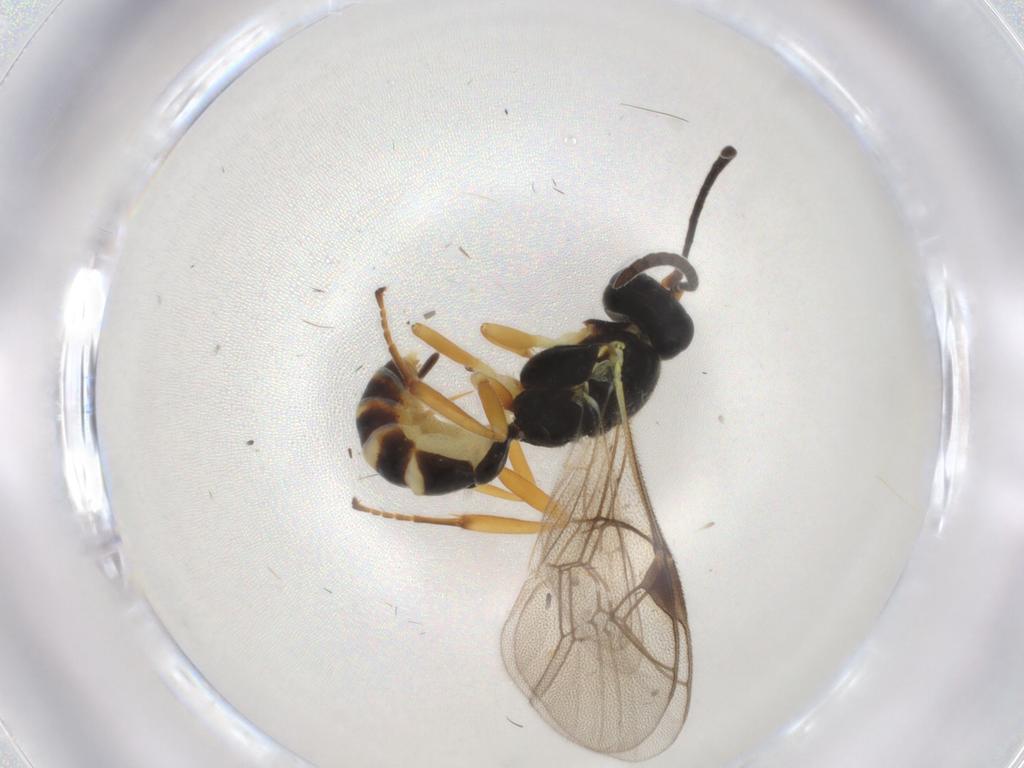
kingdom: Animalia
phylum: Arthropoda
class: Insecta
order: Hymenoptera
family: Ichneumonidae
